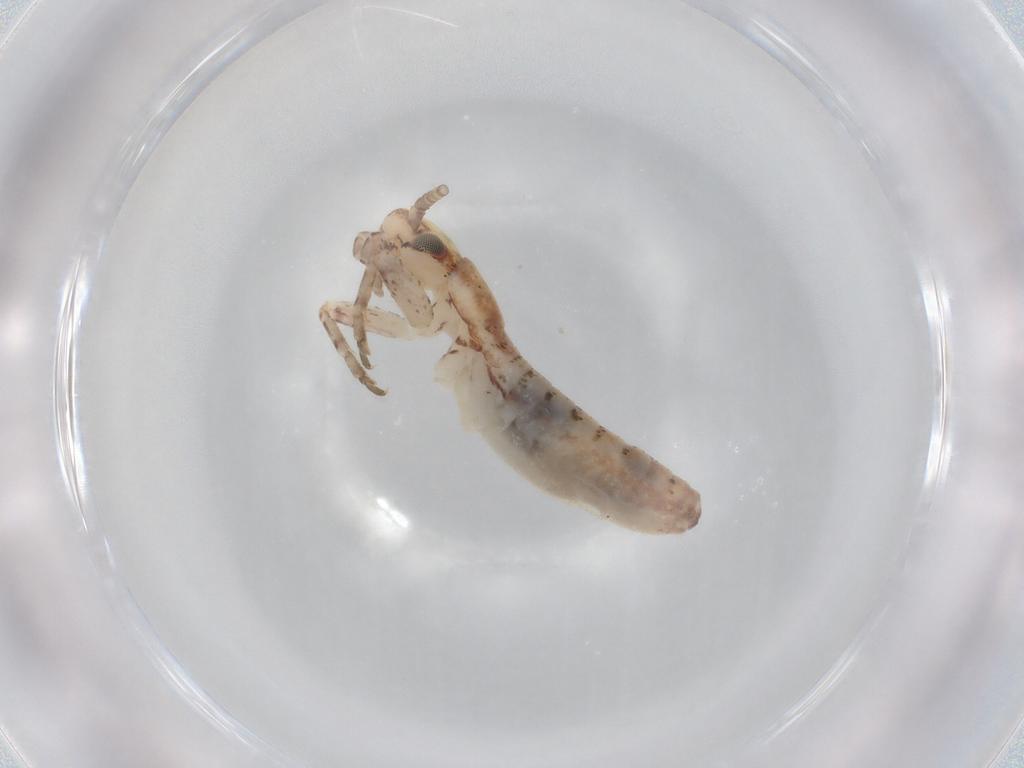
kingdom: Animalia
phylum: Arthropoda
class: Insecta
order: Orthoptera
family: Mogoplistidae
